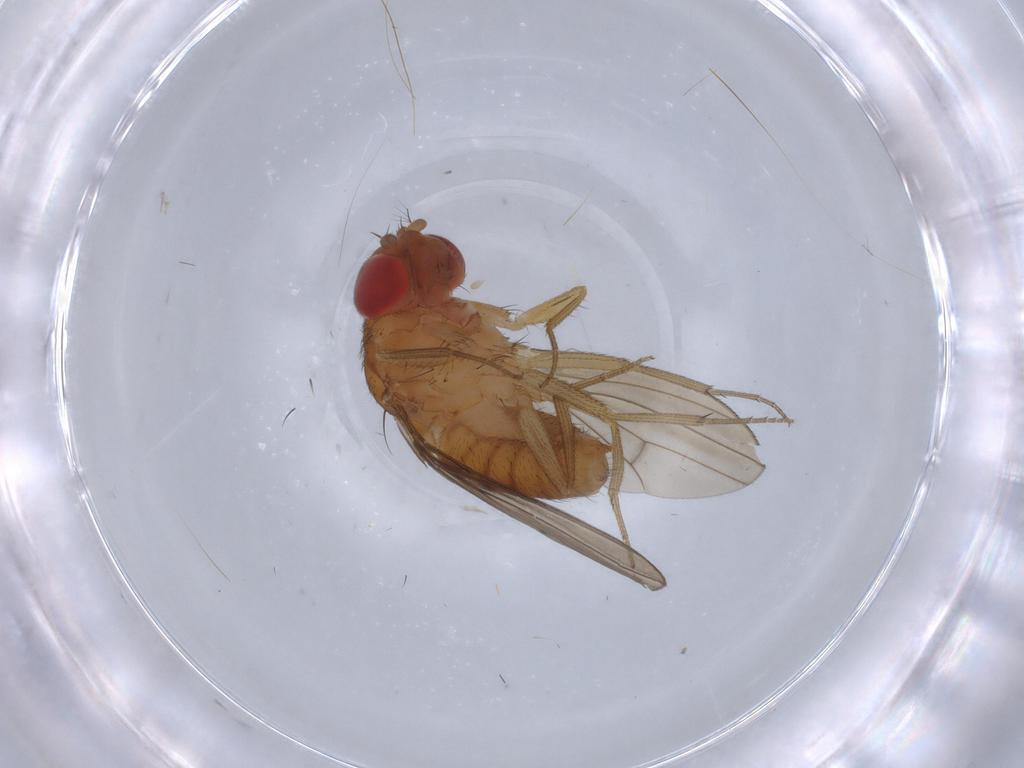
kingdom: Animalia
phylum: Arthropoda
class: Insecta
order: Diptera
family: Drosophilidae
